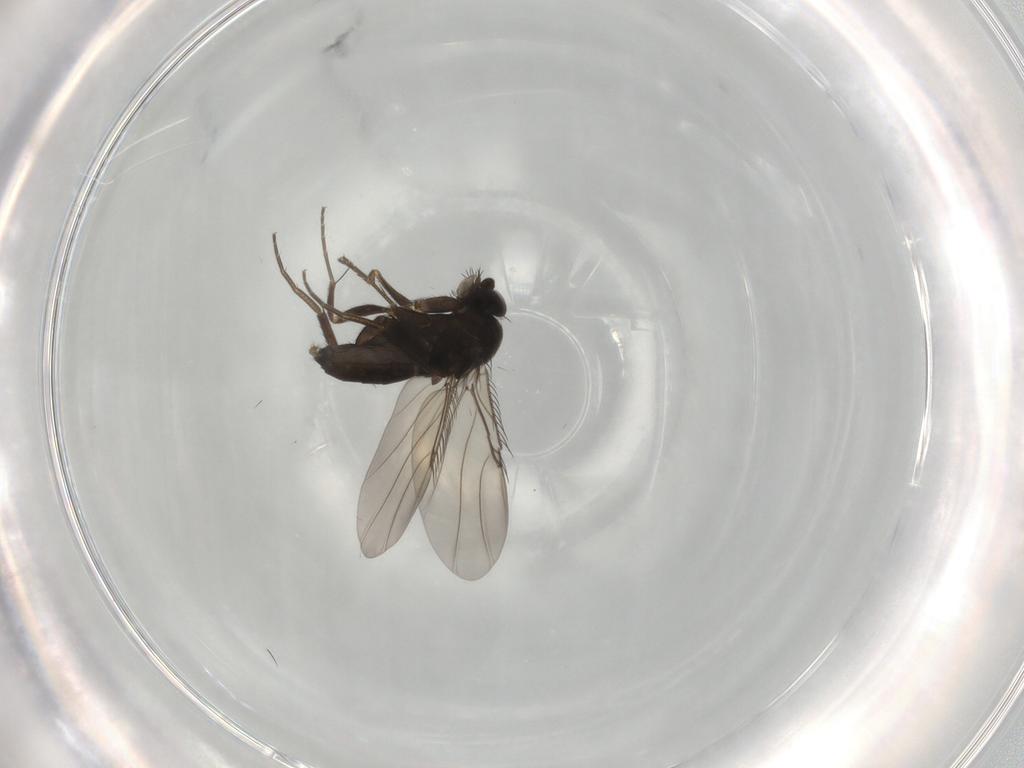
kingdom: Animalia
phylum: Arthropoda
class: Insecta
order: Diptera
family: Phoridae
